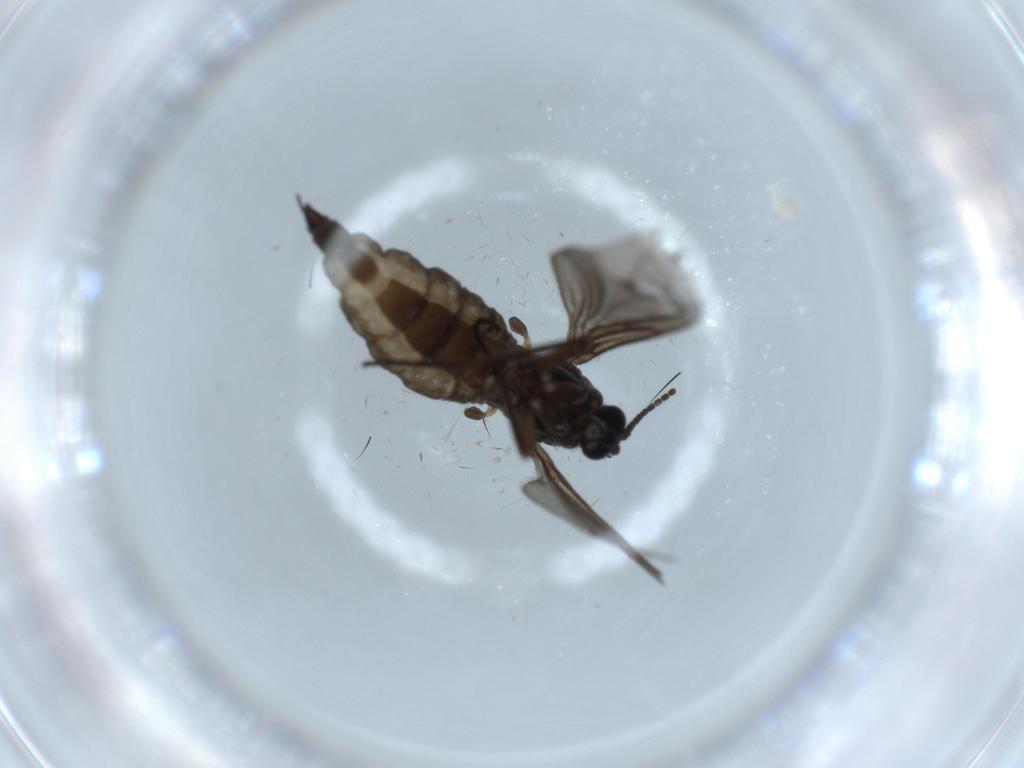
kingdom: Animalia
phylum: Arthropoda
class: Insecta
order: Diptera
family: Sciaridae
